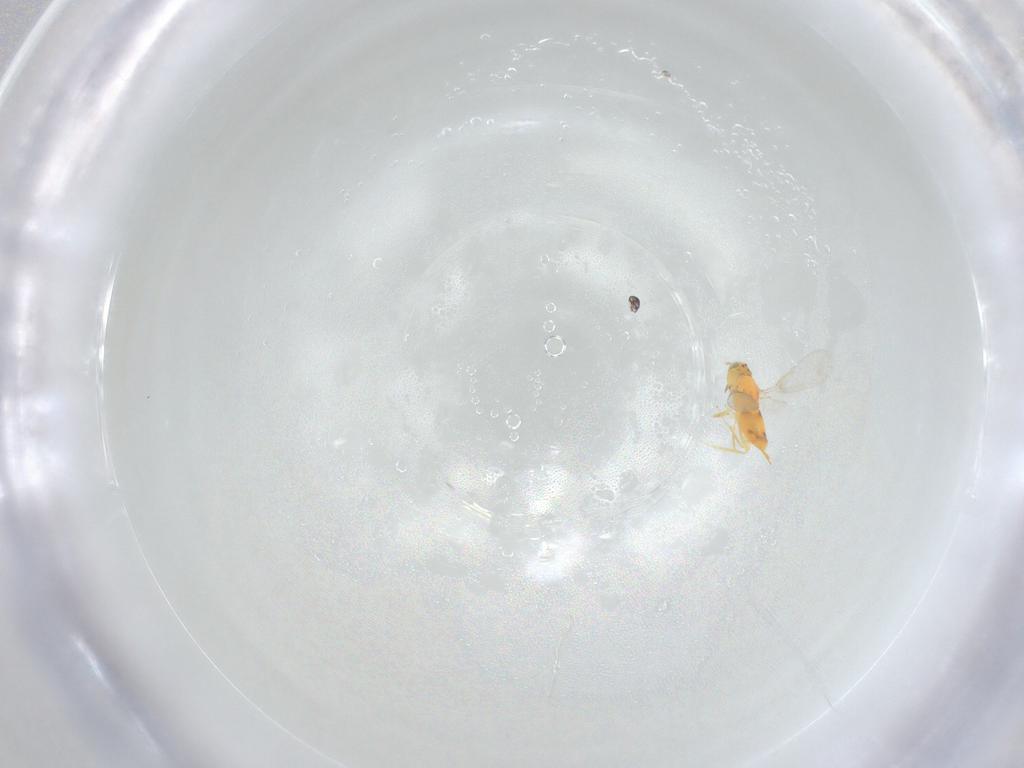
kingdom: Animalia
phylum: Arthropoda
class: Insecta
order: Hymenoptera
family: Aphelinidae
